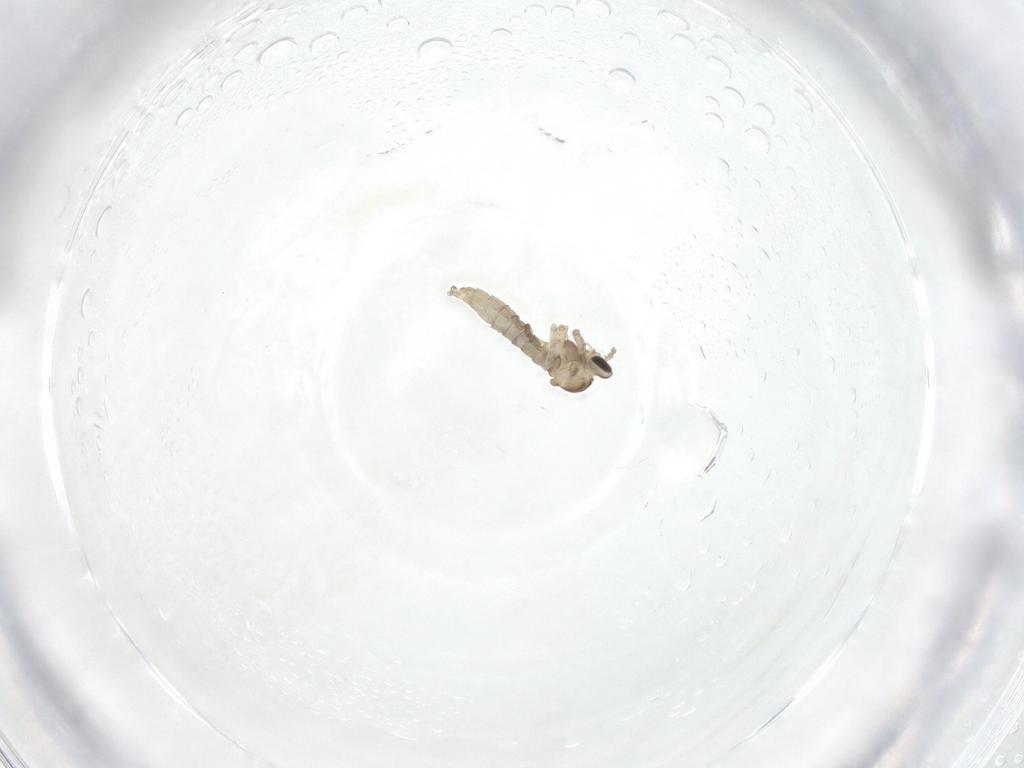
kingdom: Animalia
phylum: Arthropoda
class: Insecta
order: Diptera
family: Cecidomyiidae
